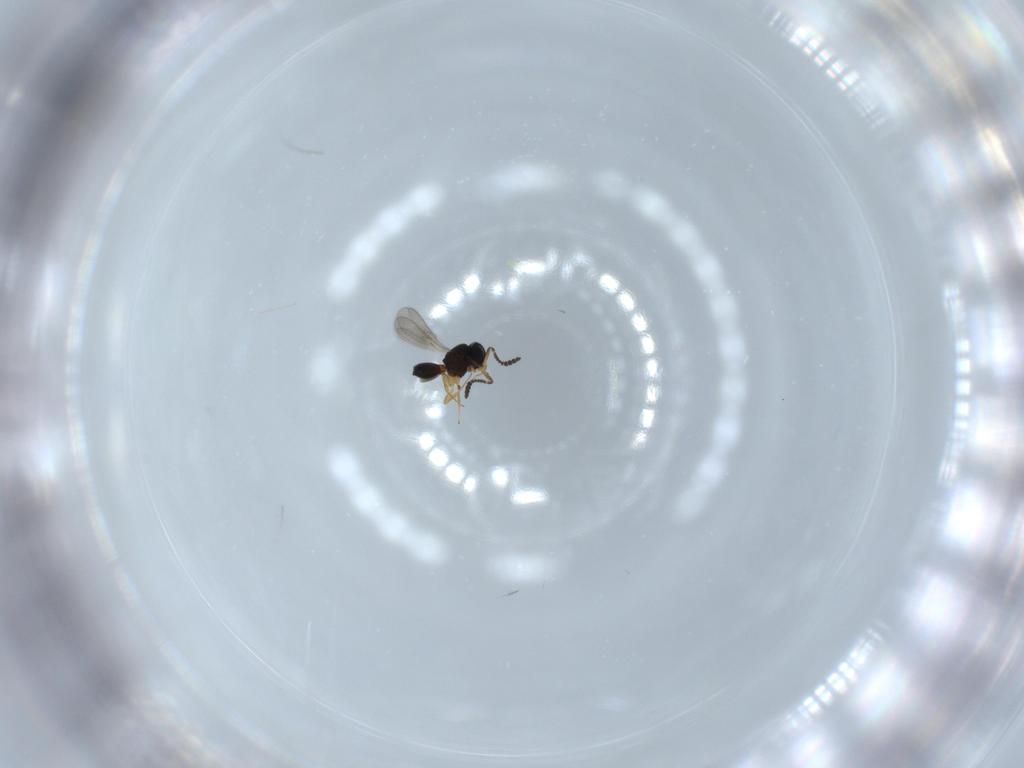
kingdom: Animalia
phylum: Arthropoda
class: Insecta
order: Hymenoptera
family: Scelionidae
